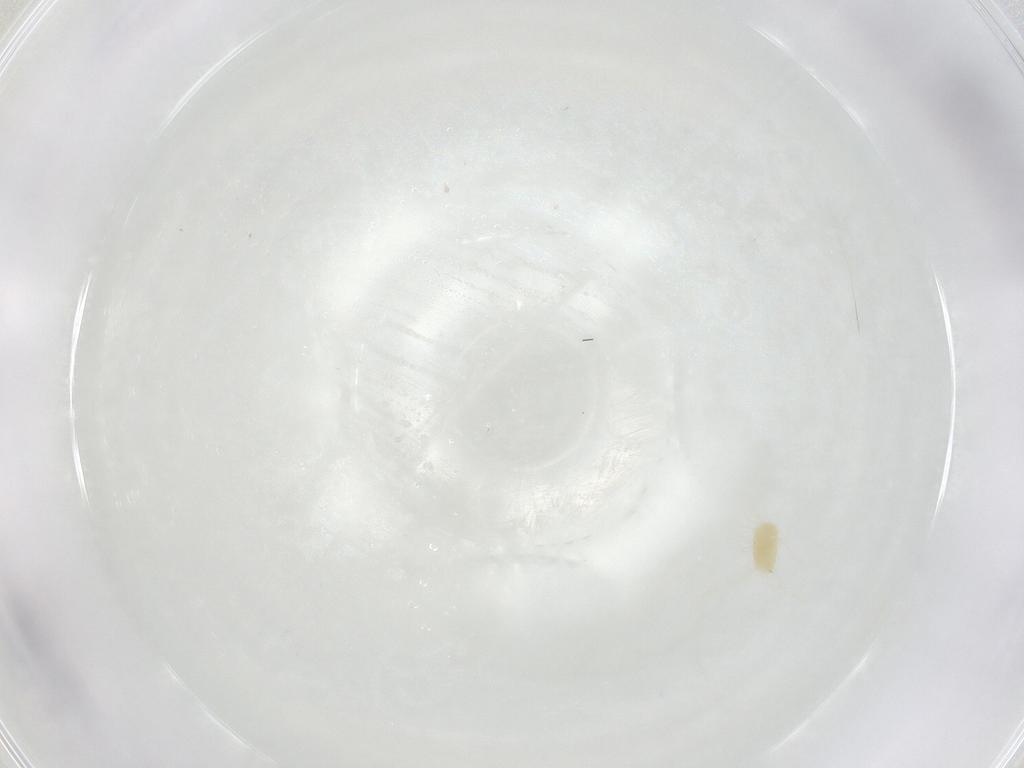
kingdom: Animalia
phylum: Arthropoda
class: Arachnida
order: Trombidiformes
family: Tetranychidae
